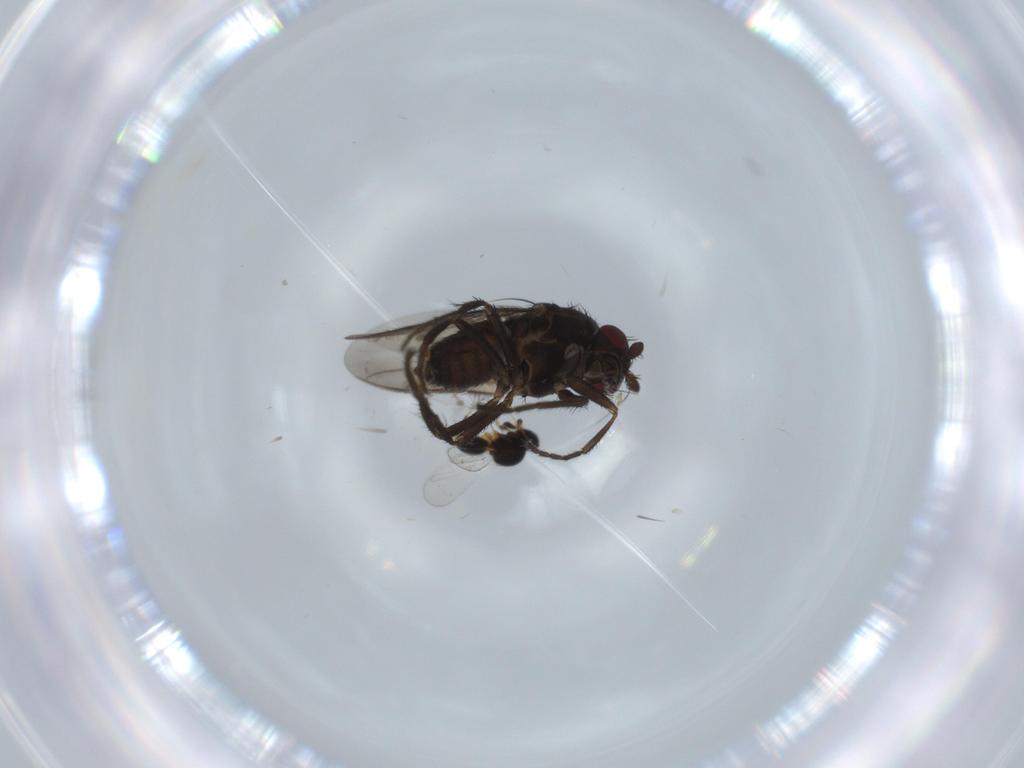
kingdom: Animalia
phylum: Arthropoda
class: Insecta
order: Diptera
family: Sphaeroceridae
